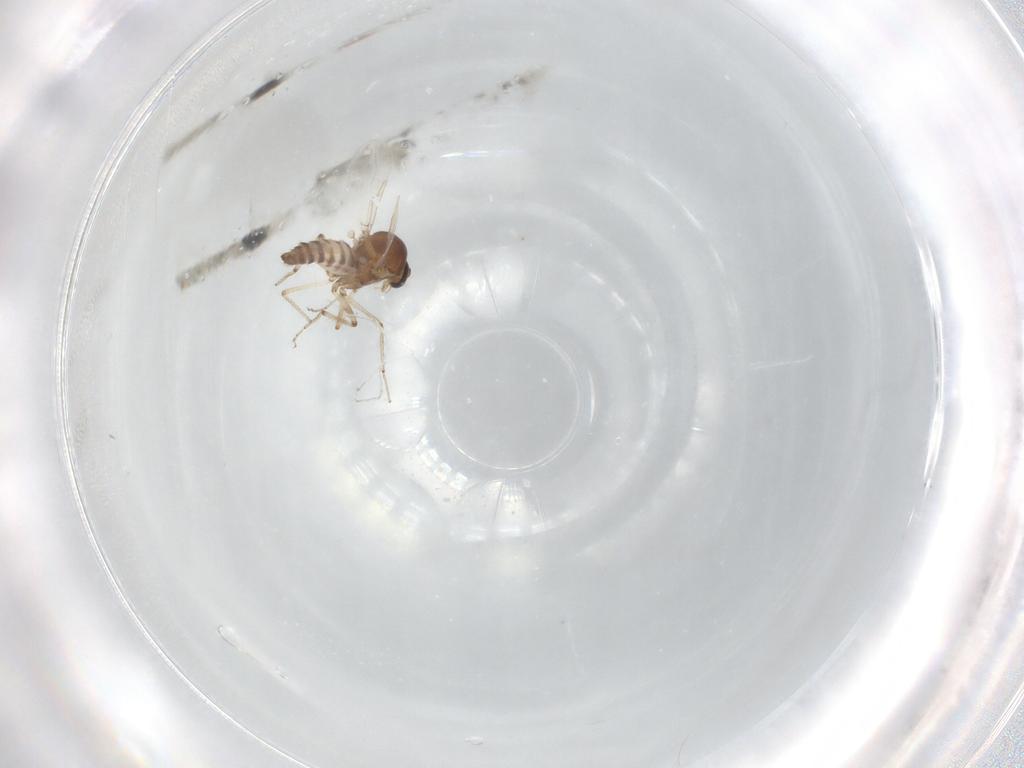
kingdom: Animalia
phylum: Arthropoda
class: Insecta
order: Diptera
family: Ceratopogonidae
